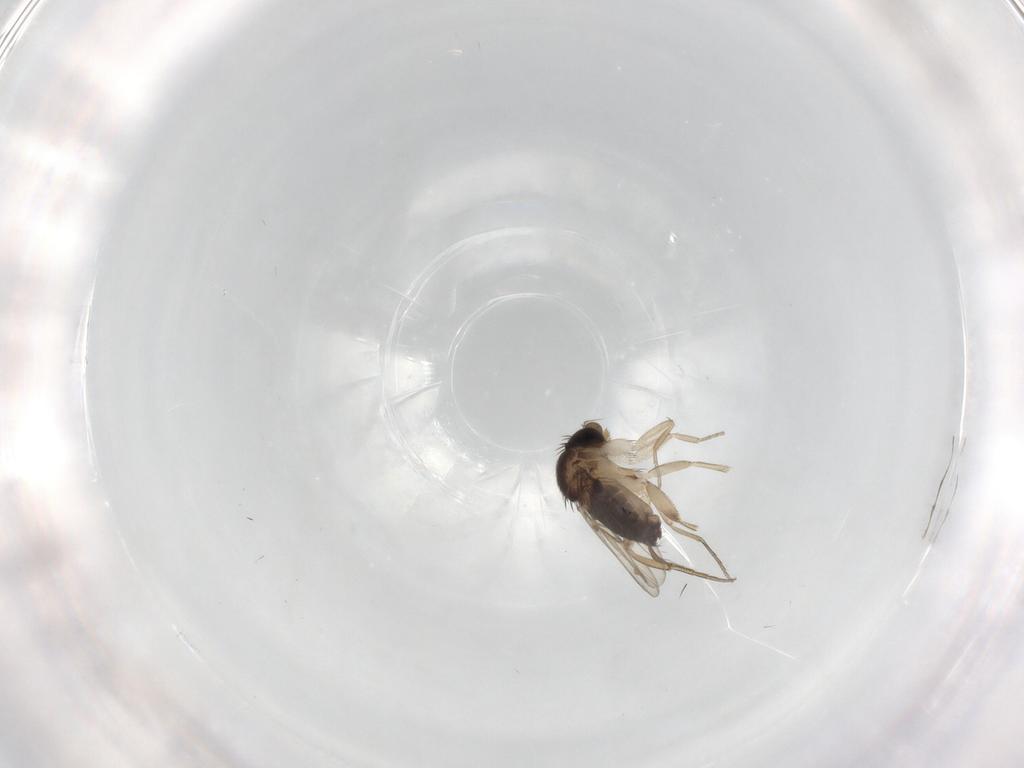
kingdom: Animalia
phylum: Arthropoda
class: Insecta
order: Diptera
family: Cecidomyiidae
